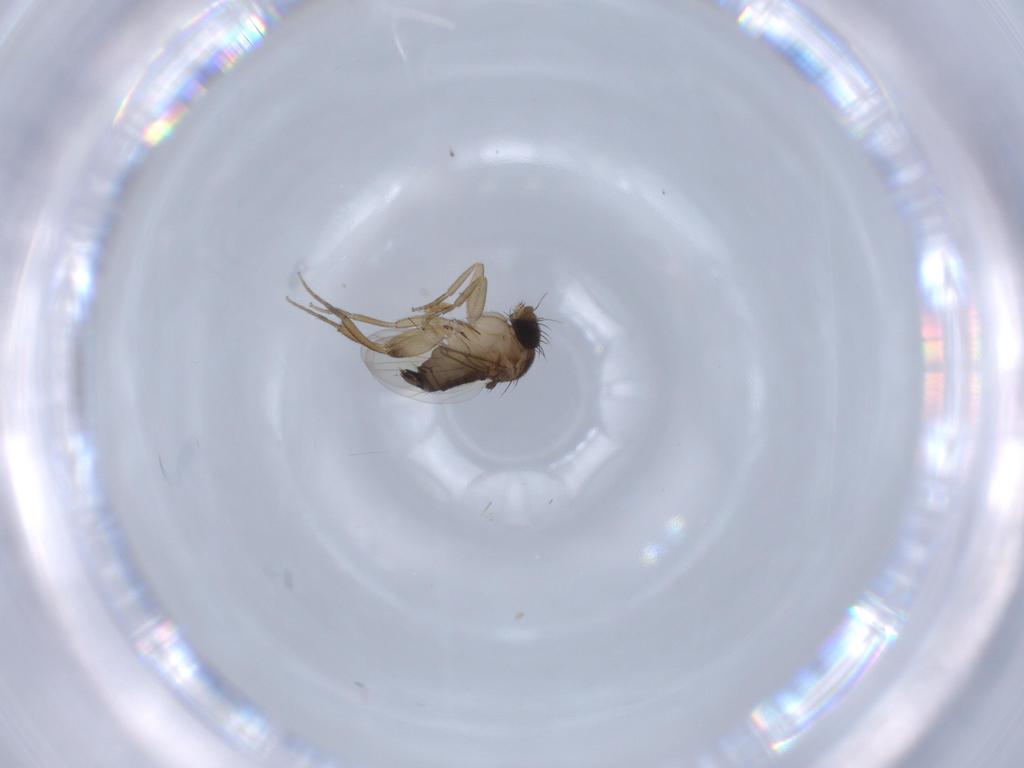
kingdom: Animalia
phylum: Arthropoda
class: Insecta
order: Diptera
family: Phoridae
